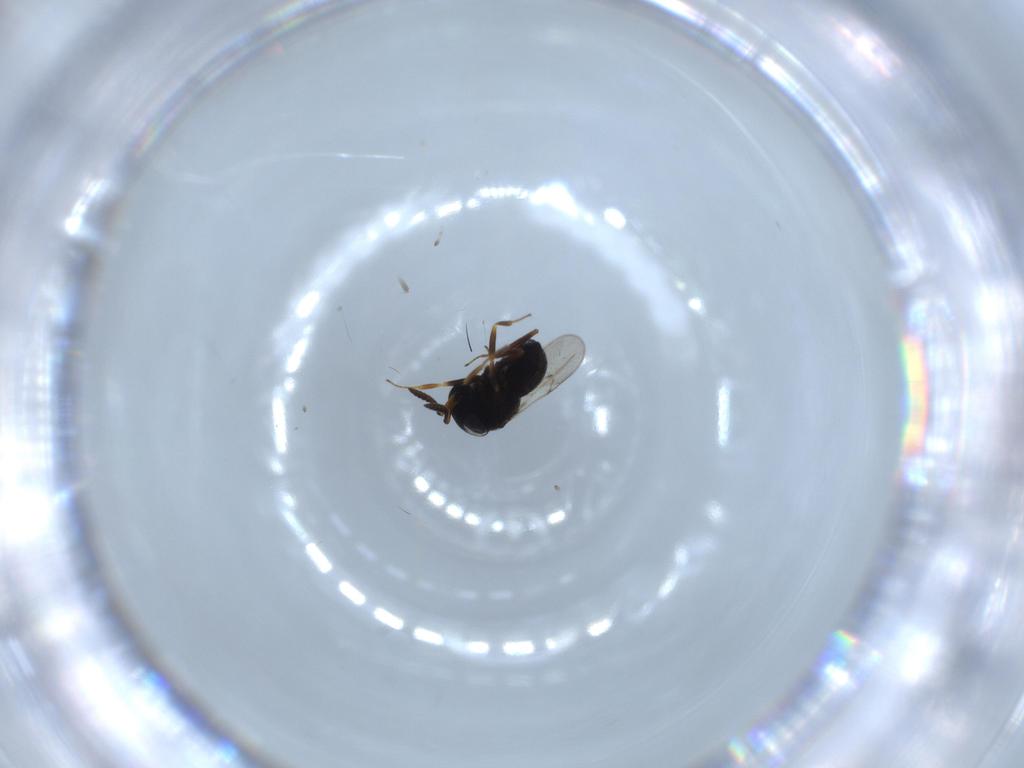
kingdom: Animalia
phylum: Arthropoda
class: Insecta
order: Hymenoptera
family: Scelionidae
